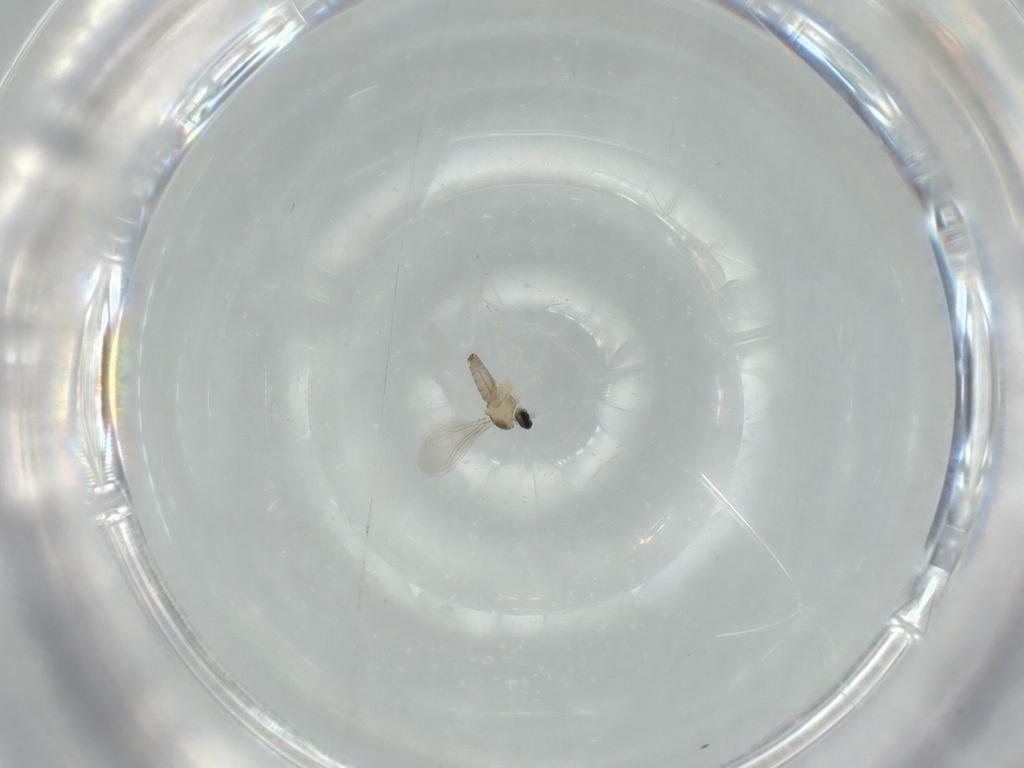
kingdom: Animalia
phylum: Arthropoda
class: Insecta
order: Diptera
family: Cecidomyiidae
